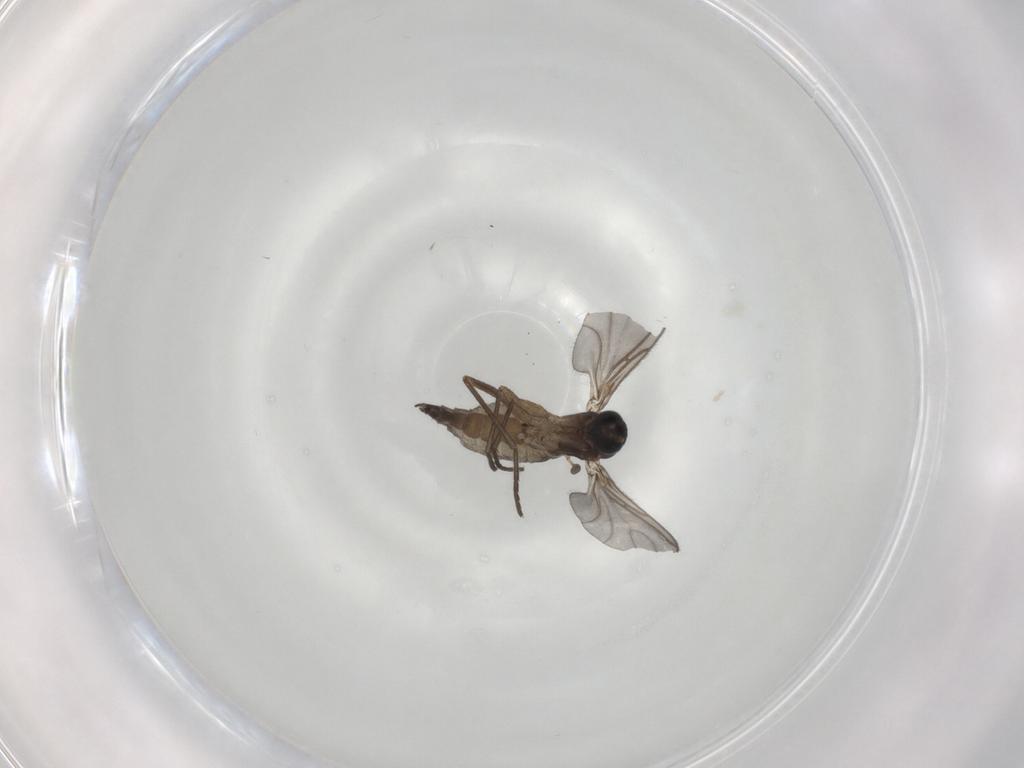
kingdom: Animalia
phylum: Arthropoda
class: Insecta
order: Diptera
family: Sciaridae
